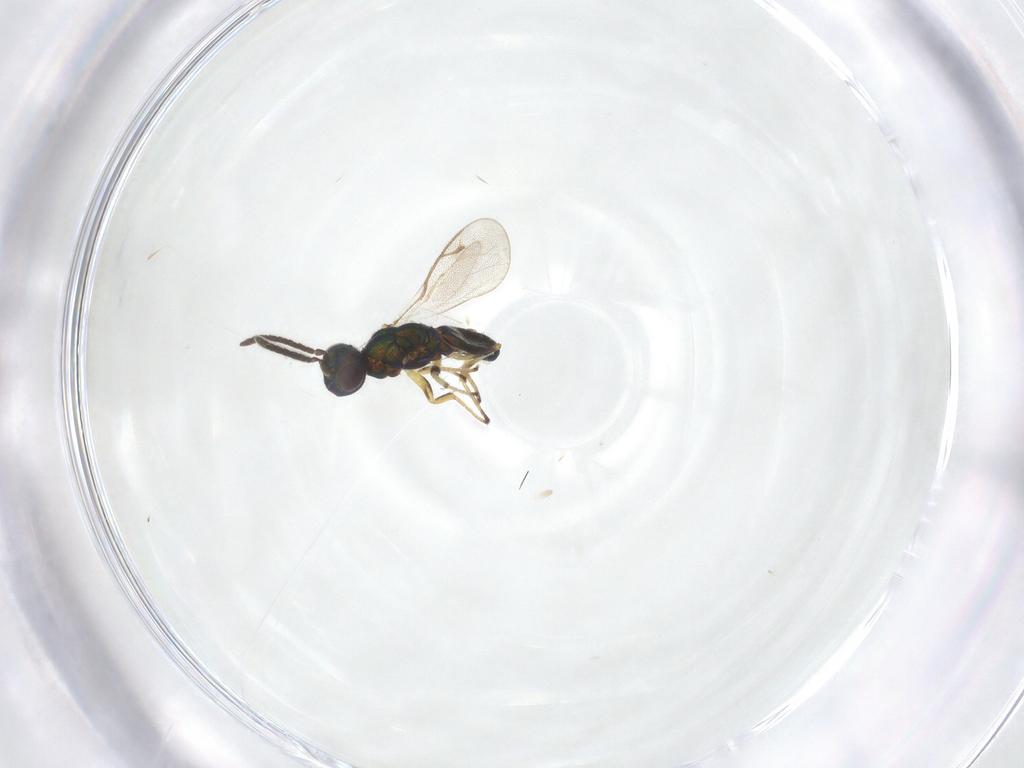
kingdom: Animalia
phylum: Arthropoda
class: Insecta
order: Hymenoptera
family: Eupelmidae
